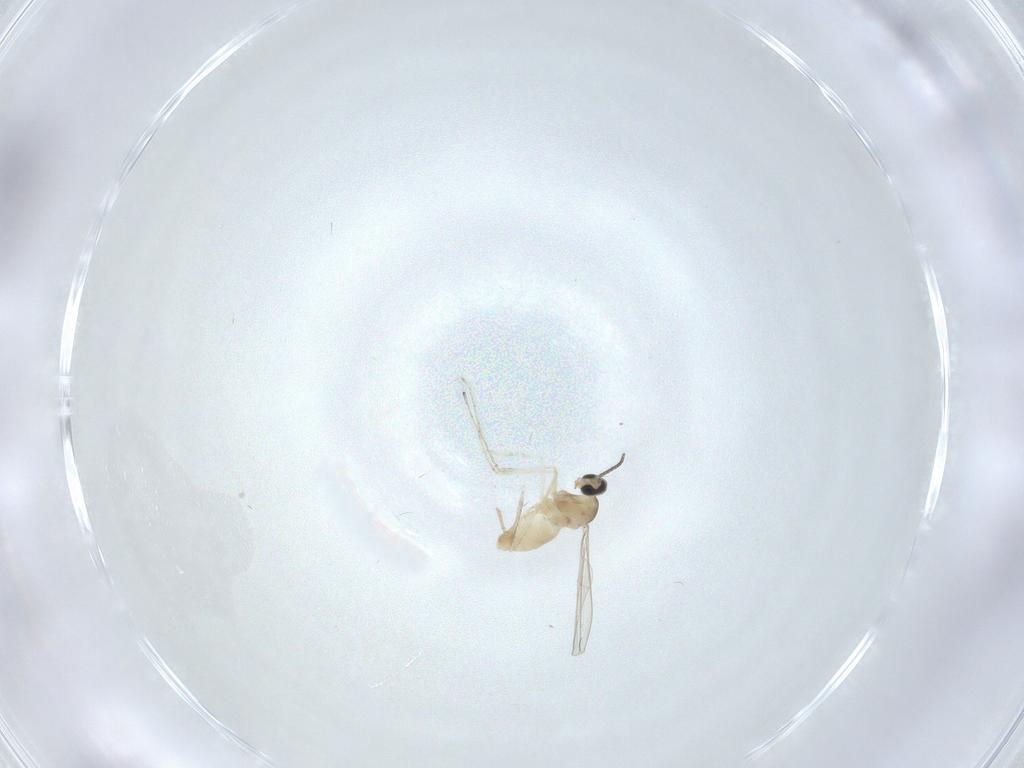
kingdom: Animalia
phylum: Arthropoda
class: Insecta
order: Diptera
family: Cecidomyiidae
